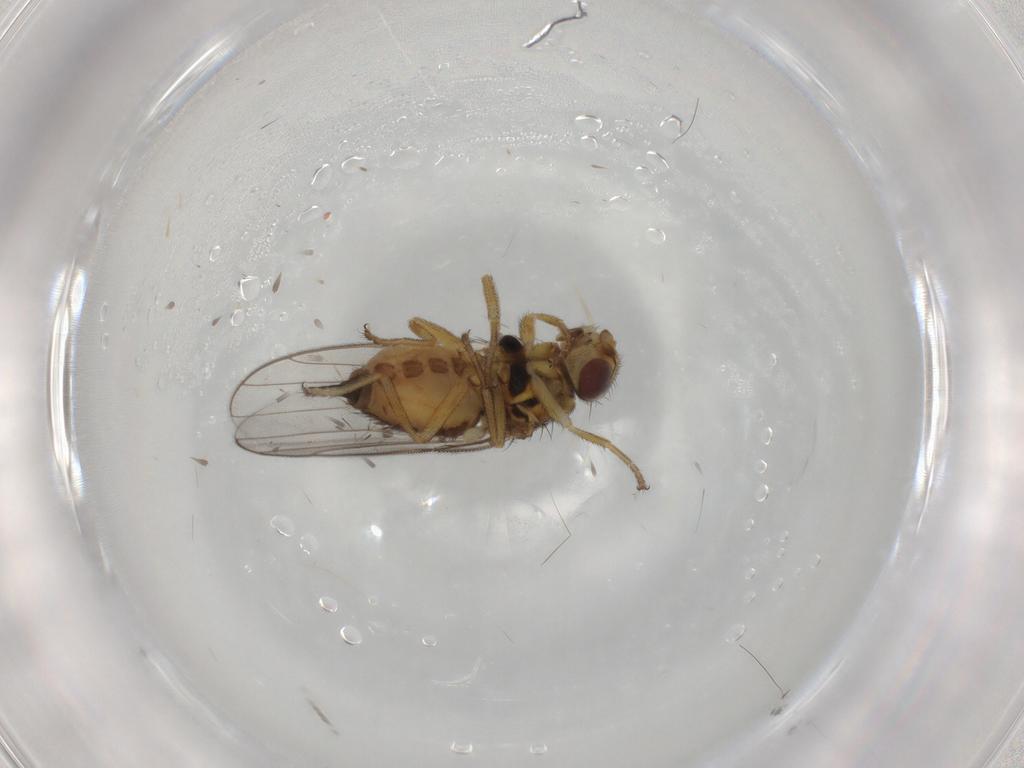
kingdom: Animalia
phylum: Arthropoda
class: Insecta
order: Diptera
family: Chloropidae
